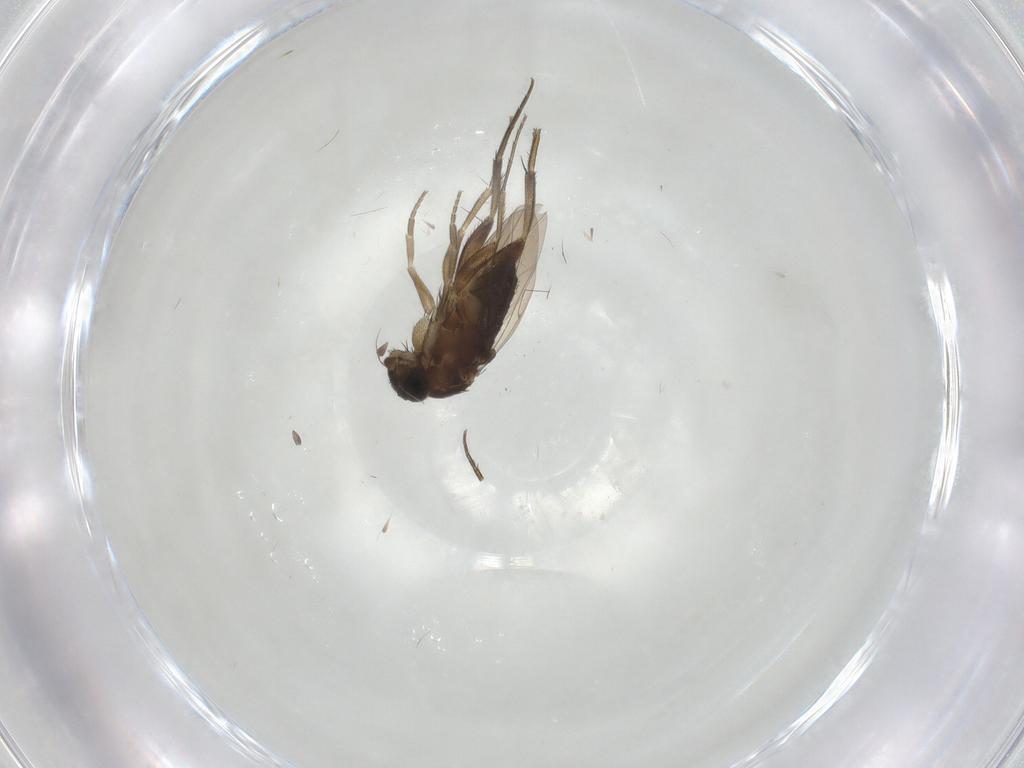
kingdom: Animalia
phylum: Arthropoda
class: Insecta
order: Diptera
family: Phoridae
